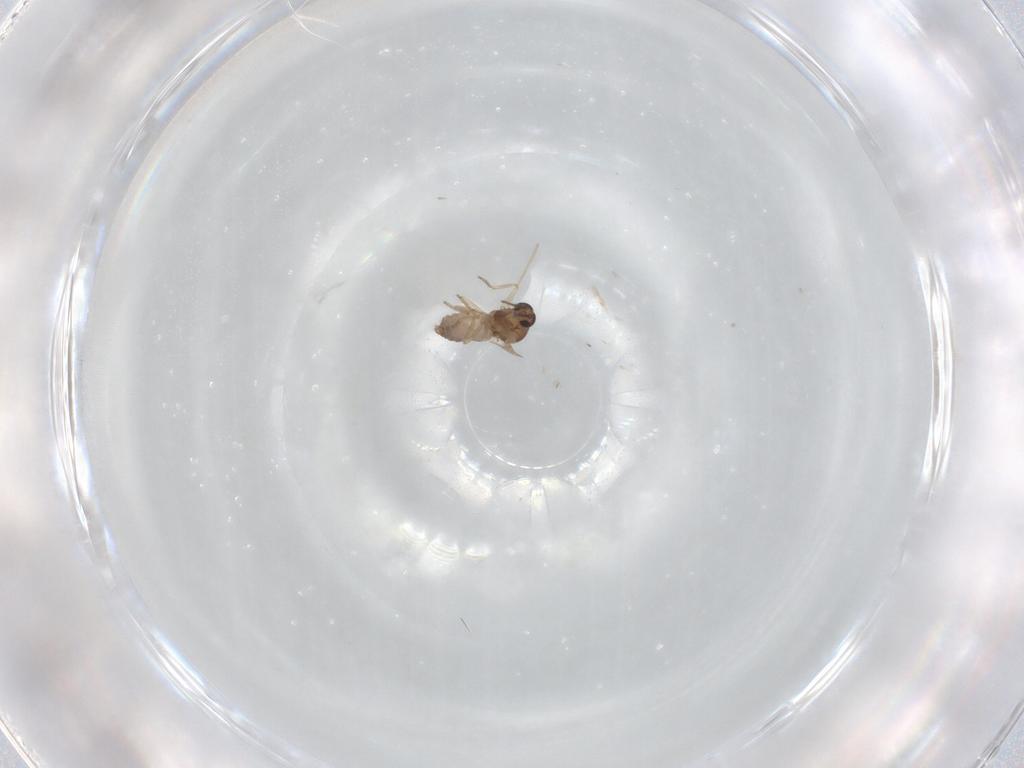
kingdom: Animalia
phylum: Arthropoda
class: Insecta
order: Diptera
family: Ceratopogonidae
